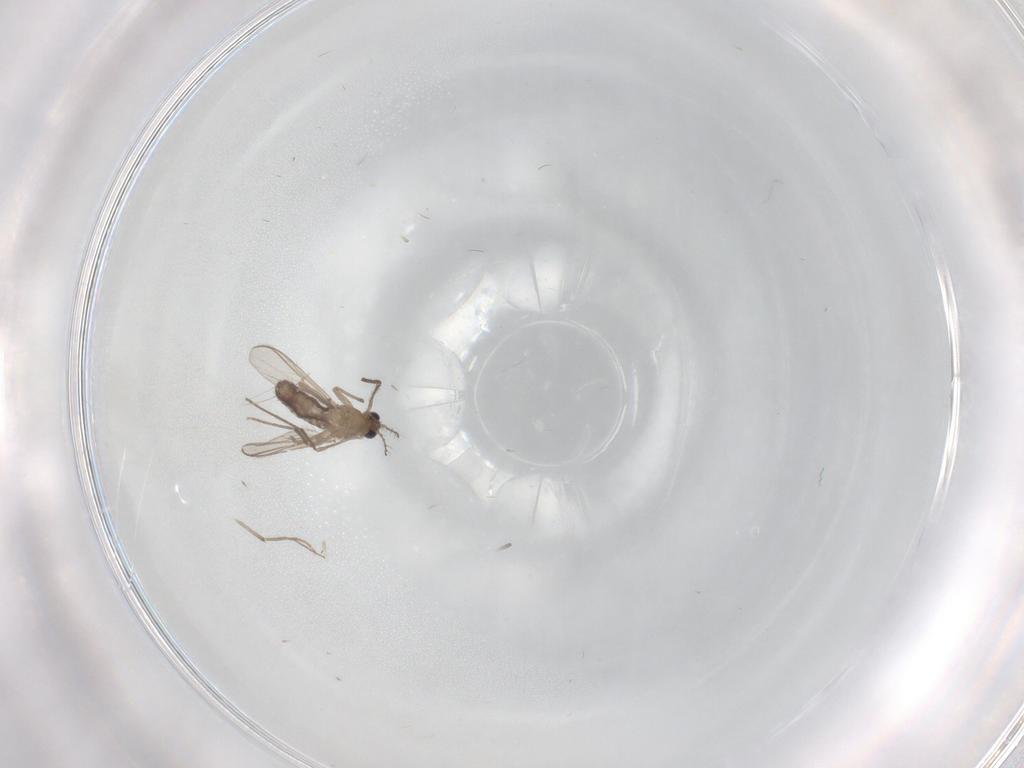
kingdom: Animalia
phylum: Arthropoda
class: Insecta
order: Diptera
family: Chironomidae
